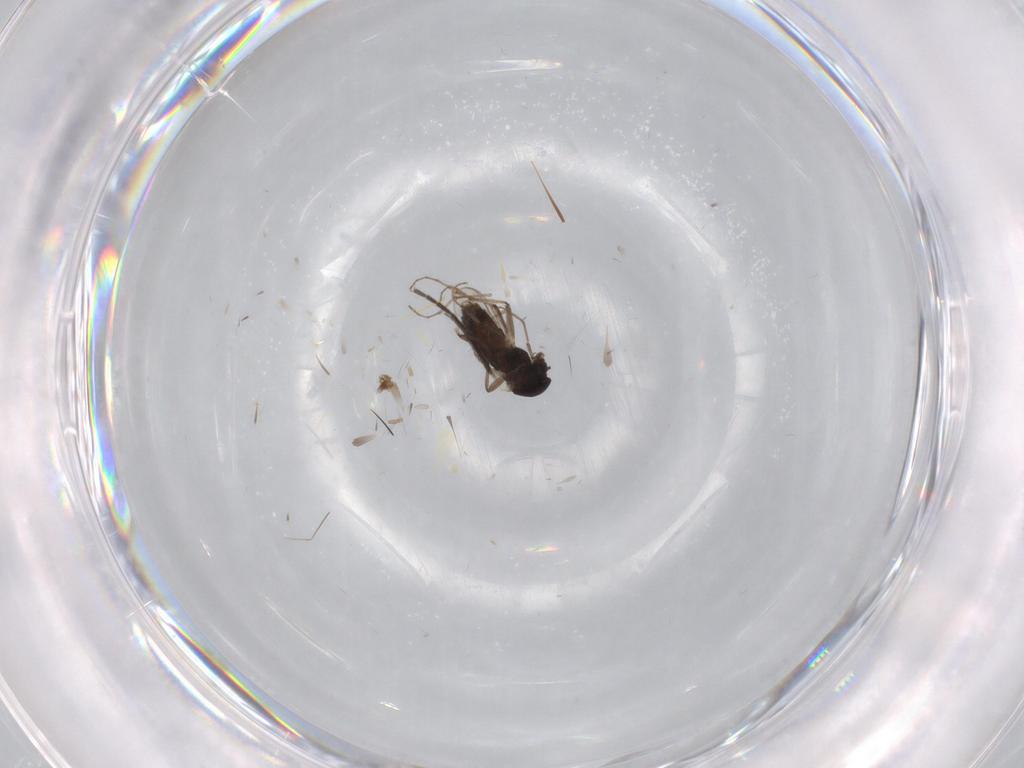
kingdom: Animalia
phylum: Arthropoda
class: Insecta
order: Diptera
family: Chironomidae
